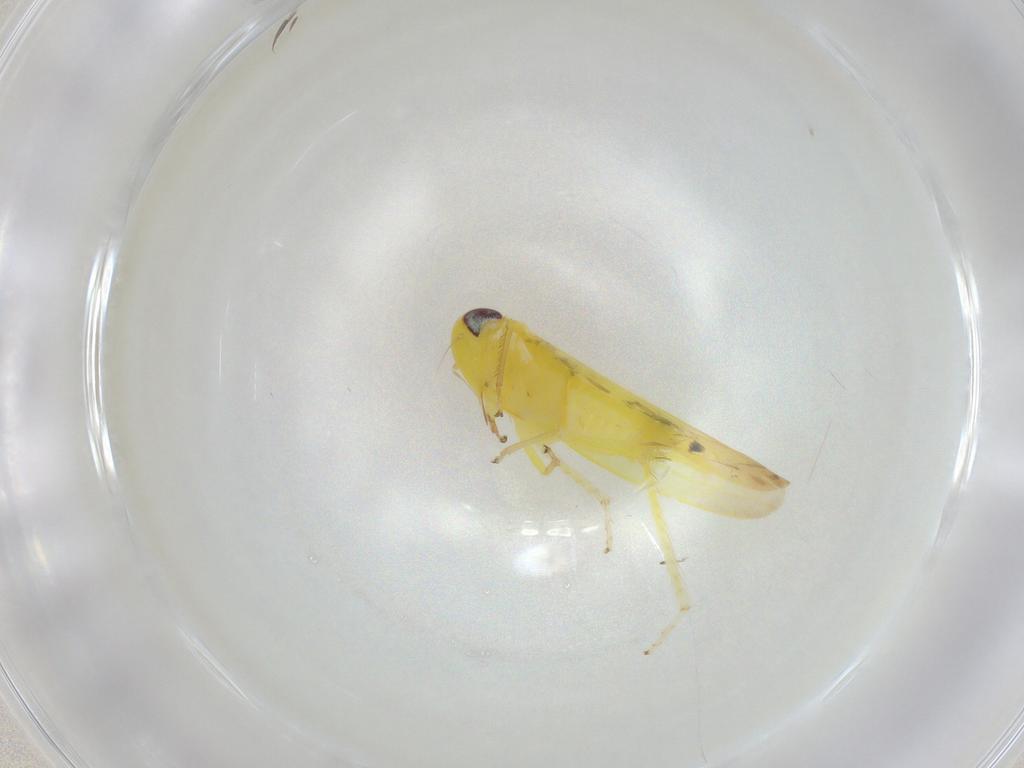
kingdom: Animalia
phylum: Arthropoda
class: Insecta
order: Hemiptera
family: Cicadellidae
